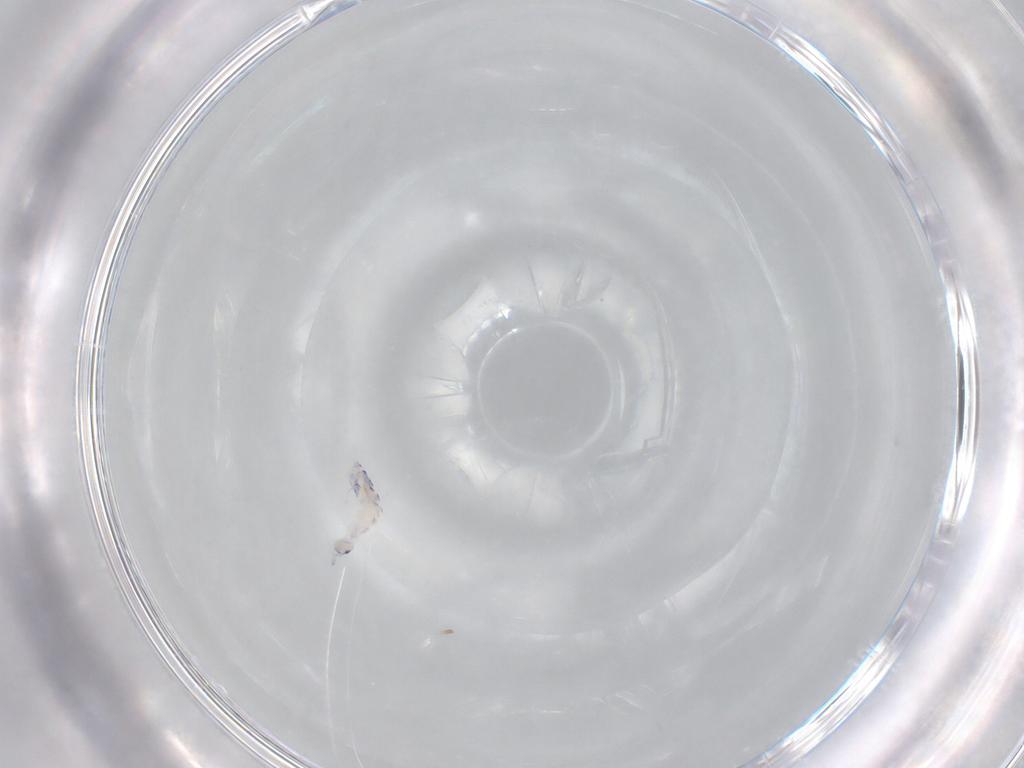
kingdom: Animalia
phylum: Arthropoda
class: Collembola
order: Entomobryomorpha
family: Entomobryidae
